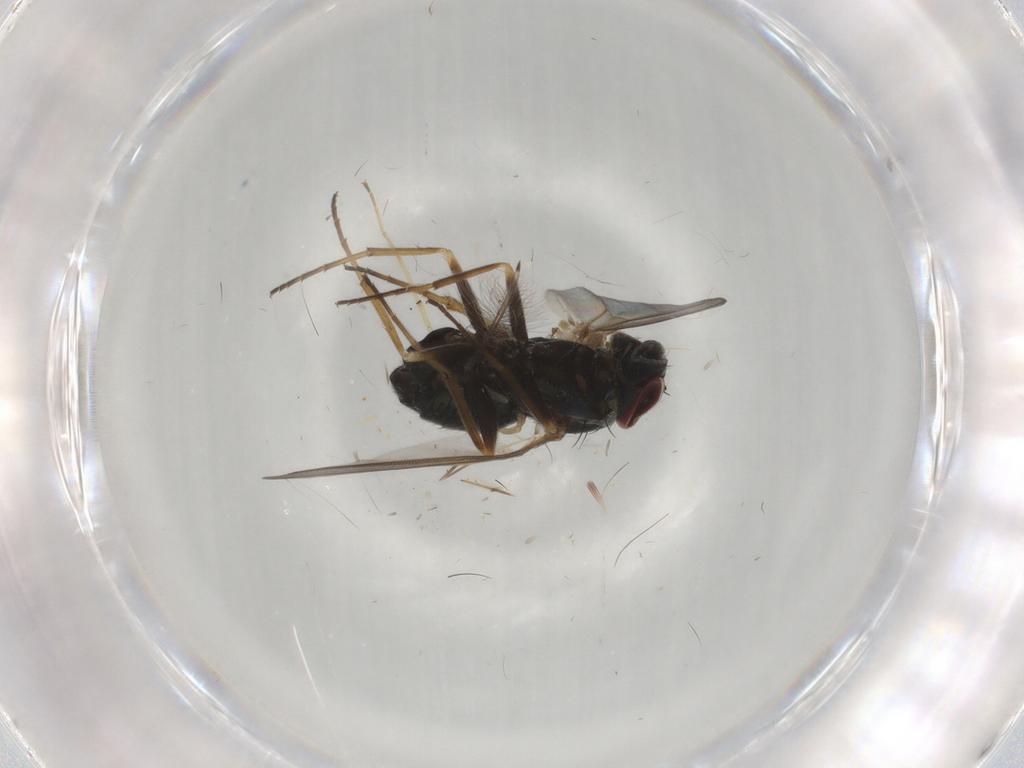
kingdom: Animalia
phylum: Arthropoda
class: Insecta
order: Diptera
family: Dolichopodidae
